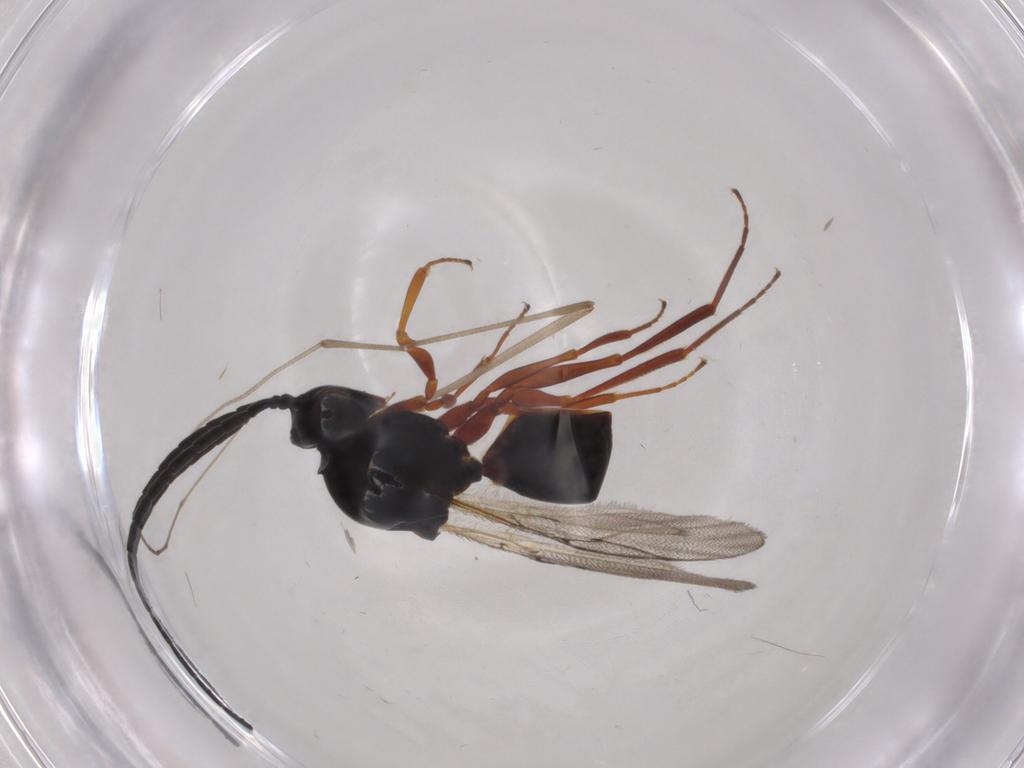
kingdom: Animalia
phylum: Arthropoda
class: Insecta
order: Hymenoptera
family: Figitidae
